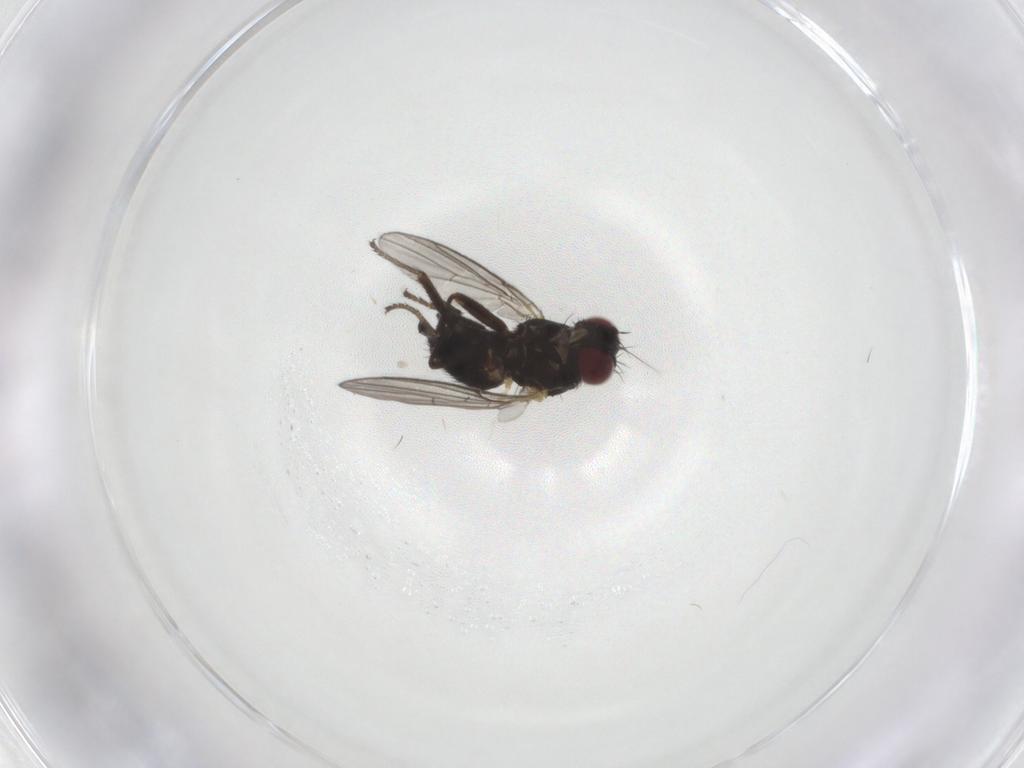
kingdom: Animalia
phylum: Arthropoda
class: Insecta
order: Diptera
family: Agromyzidae
